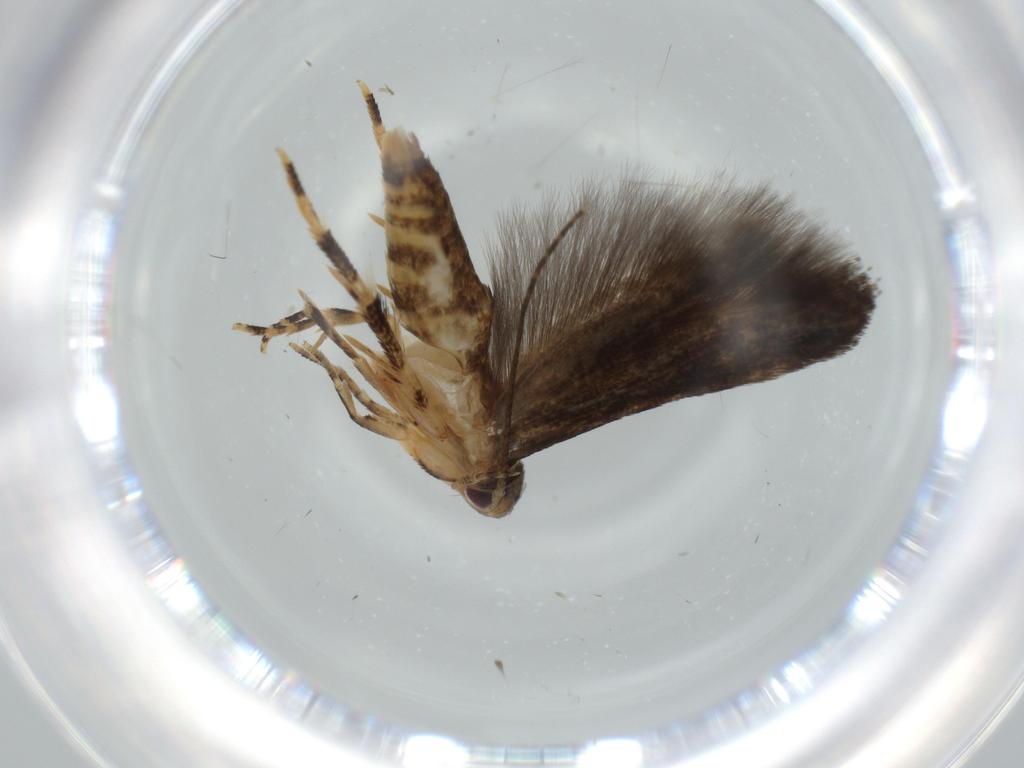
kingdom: Animalia
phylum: Arthropoda
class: Insecta
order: Lepidoptera
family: Momphidae
